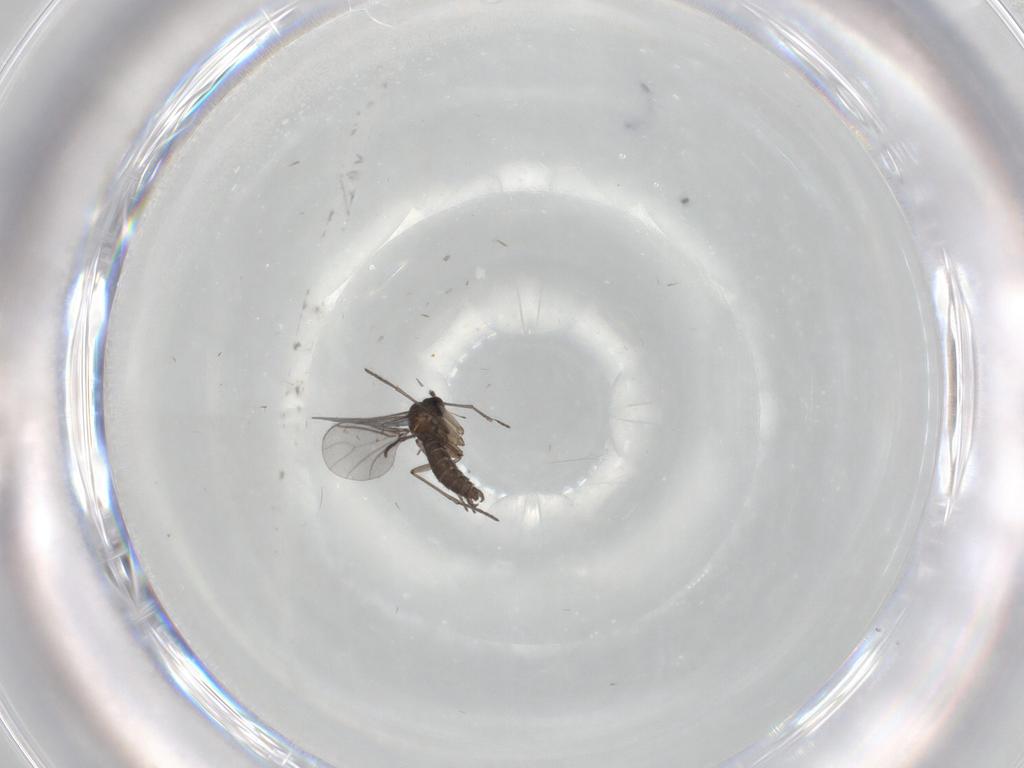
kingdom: Animalia
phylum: Arthropoda
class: Insecta
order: Diptera
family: Sciaridae
